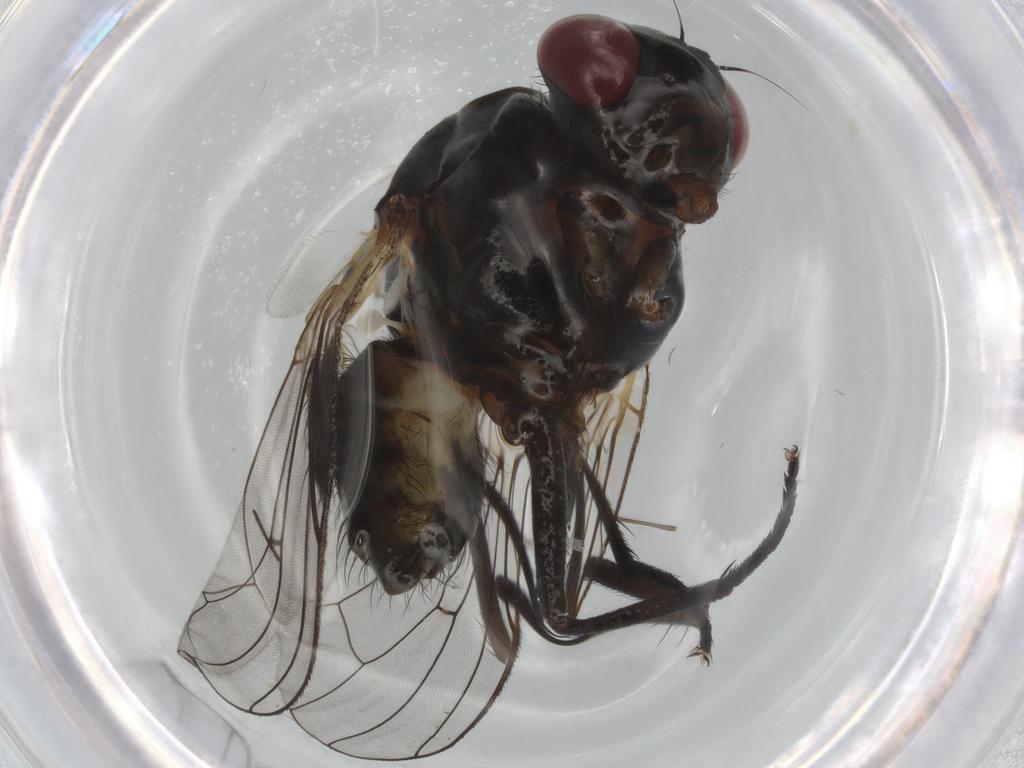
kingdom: Animalia
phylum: Arthropoda
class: Insecta
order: Diptera
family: Anthomyiidae
